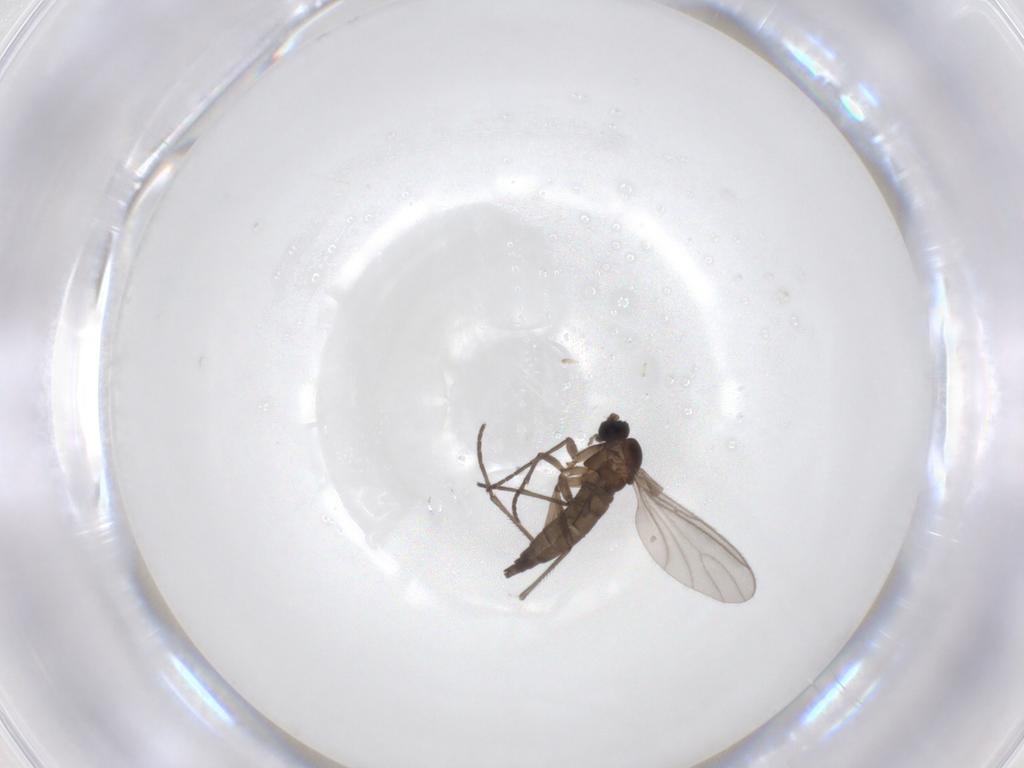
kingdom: Animalia
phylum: Arthropoda
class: Insecta
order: Diptera
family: Sciaridae
